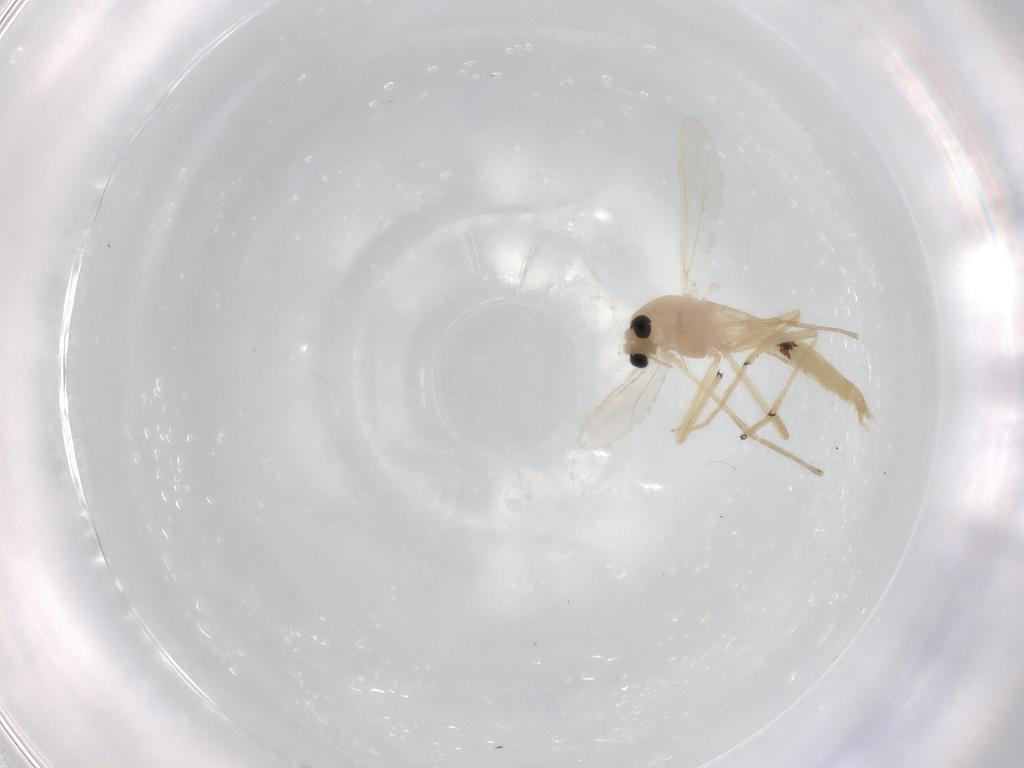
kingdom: Animalia
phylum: Arthropoda
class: Insecta
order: Diptera
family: Chironomidae
